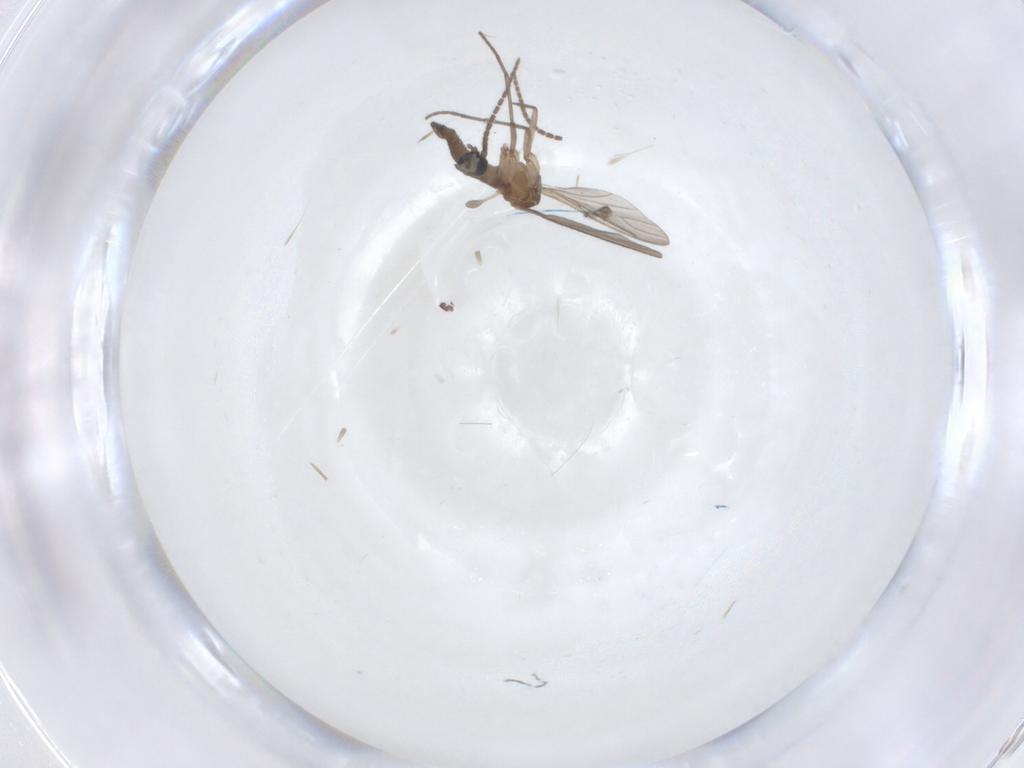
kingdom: Animalia
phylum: Arthropoda
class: Insecta
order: Diptera
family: Sciaridae
